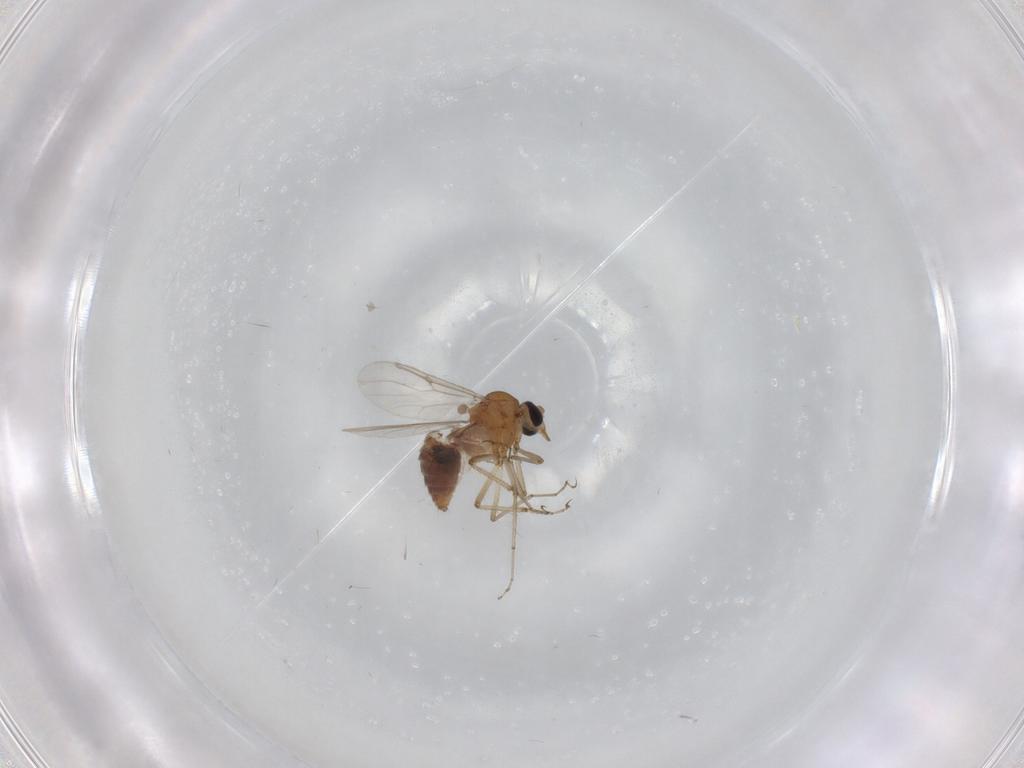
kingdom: Animalia
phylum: Arthropoda
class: Insecta
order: Diptera
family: Chironomidae
